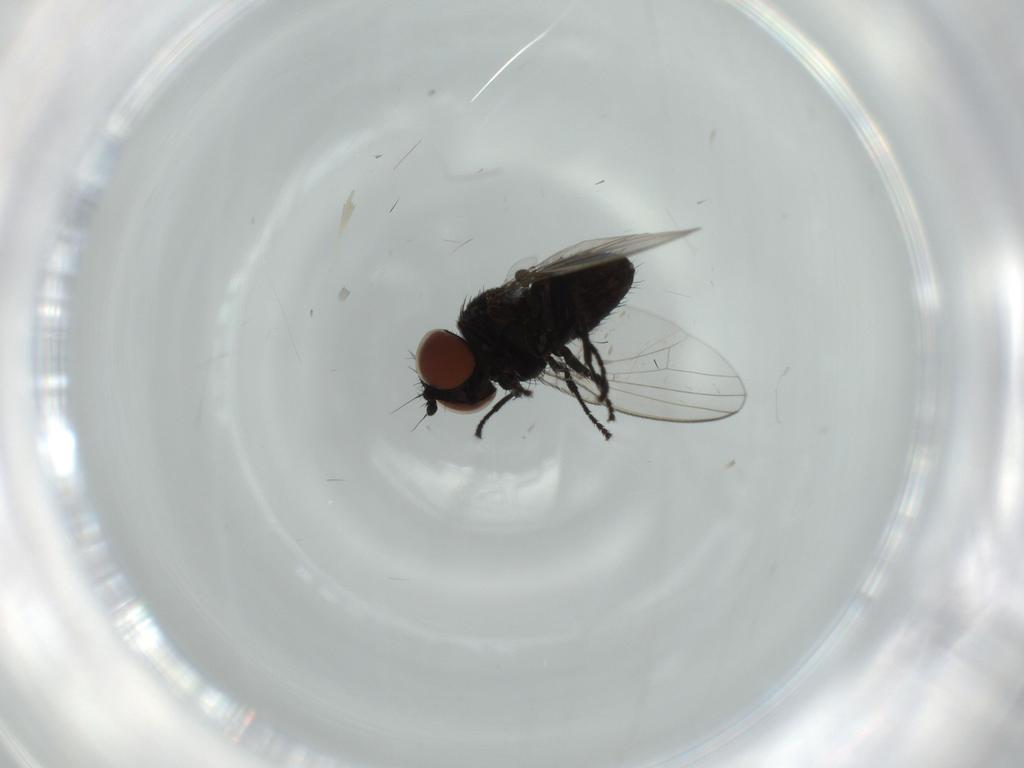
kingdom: Animalia
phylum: Arthropoda
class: Insecta
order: Diptera
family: Milichiidae
